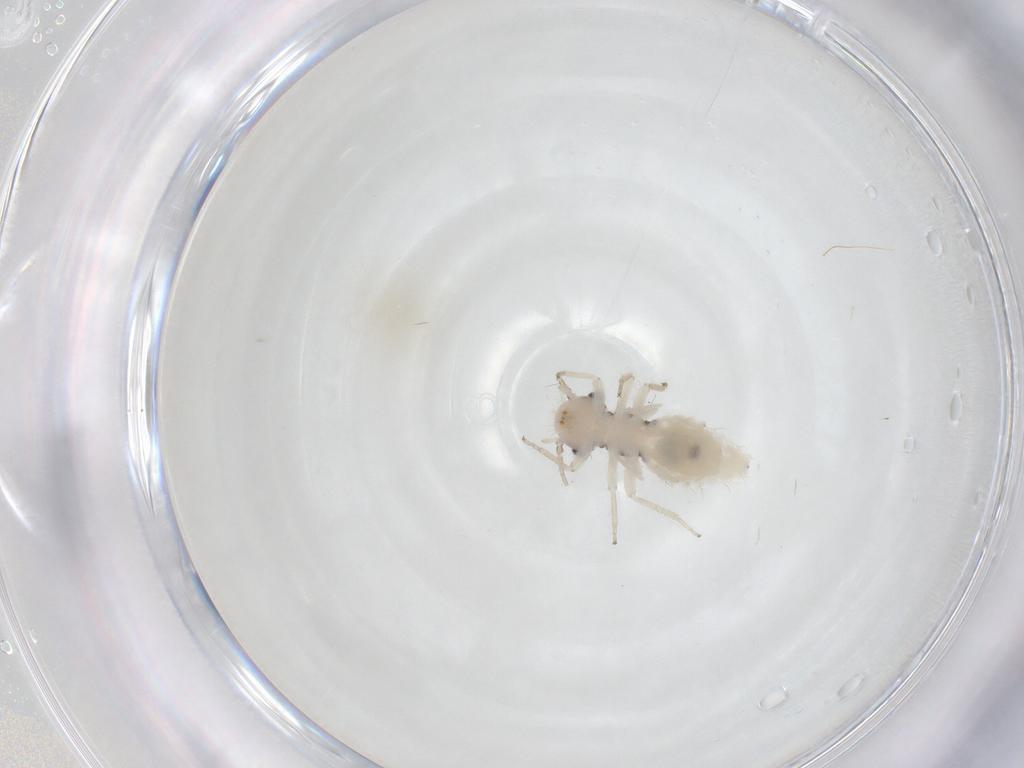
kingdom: Animalia
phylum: Arthropoda
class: Insecta
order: Psocodea
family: Pseudocaeciliidae
